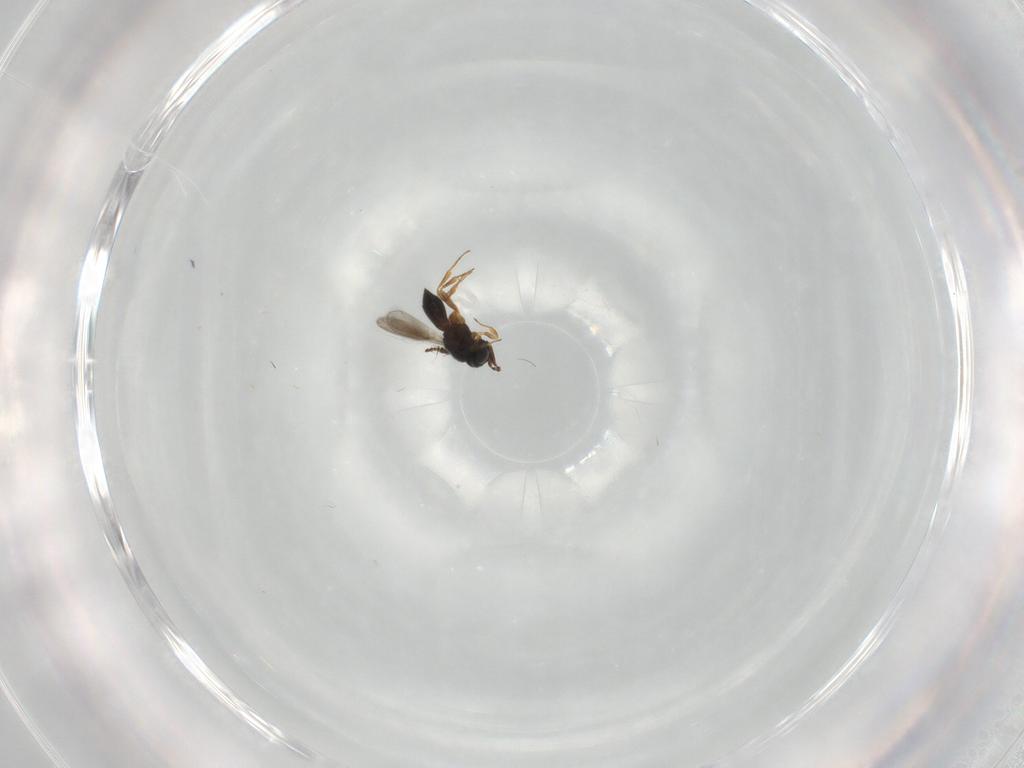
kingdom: Animalia
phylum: Arthropoda
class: Insecta
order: Hymenoptera
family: Scelionidae
